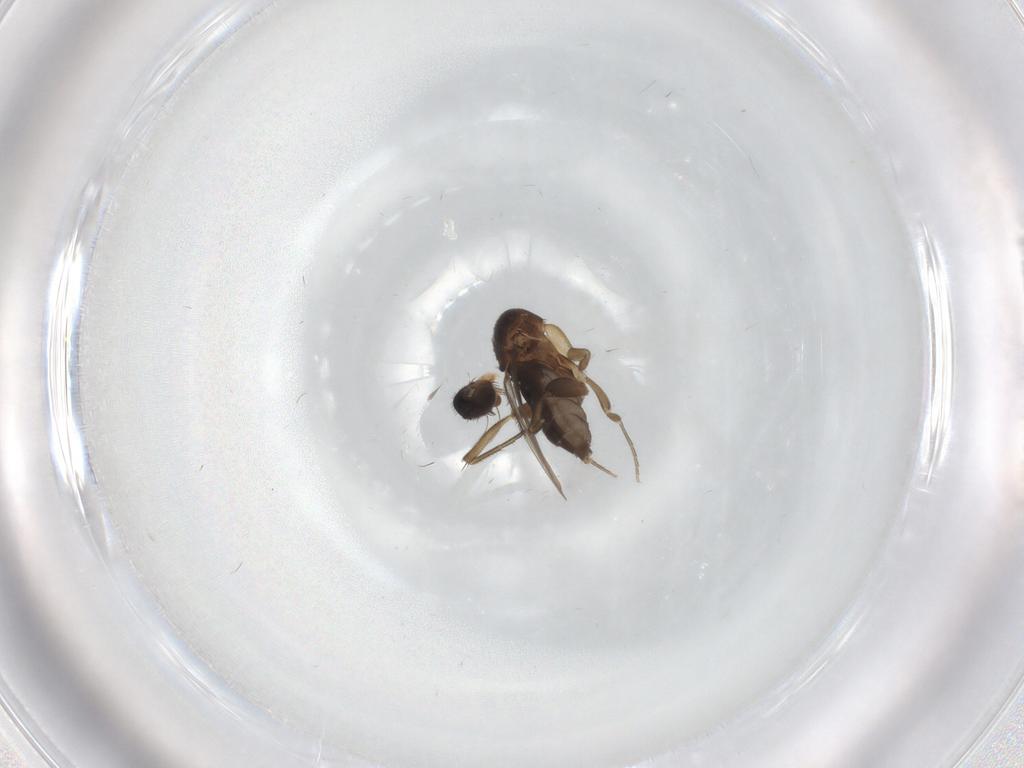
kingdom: Animalia
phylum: Arthropoda
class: Insecta
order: Diptera
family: Phoridae
